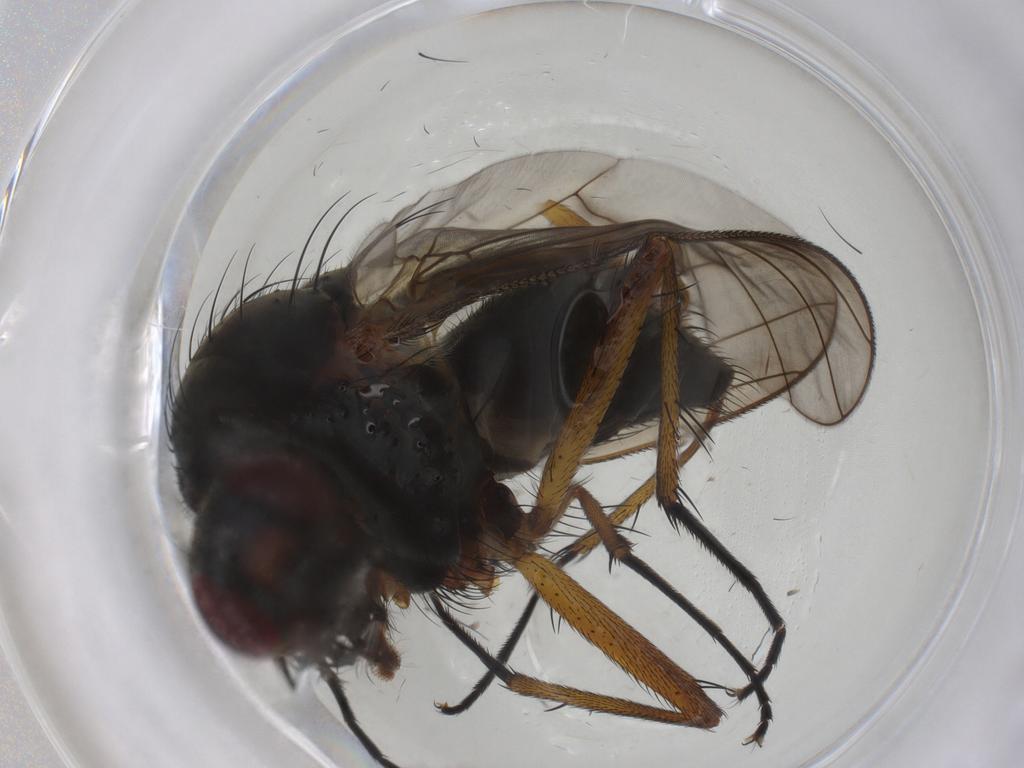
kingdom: Animalia
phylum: Arthropoda
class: Insecta
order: Diptera
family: Anthomyiidae
